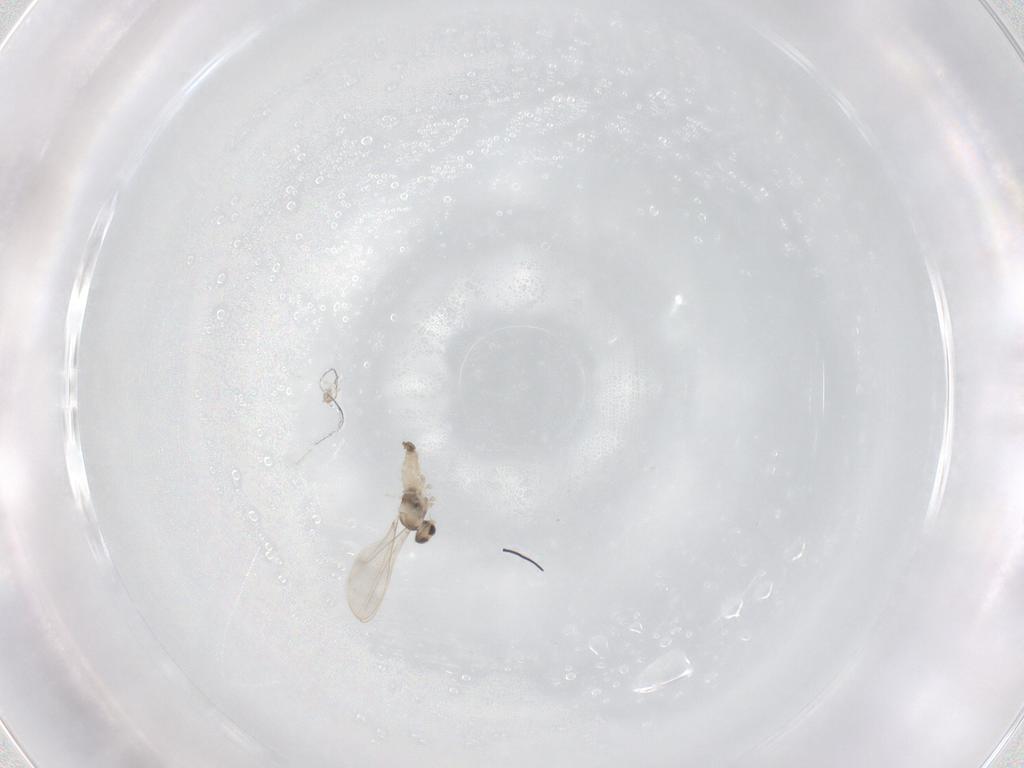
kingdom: Animalia
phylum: Arthropoda
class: Insecta
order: Diptera
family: Cecidomyiidae
